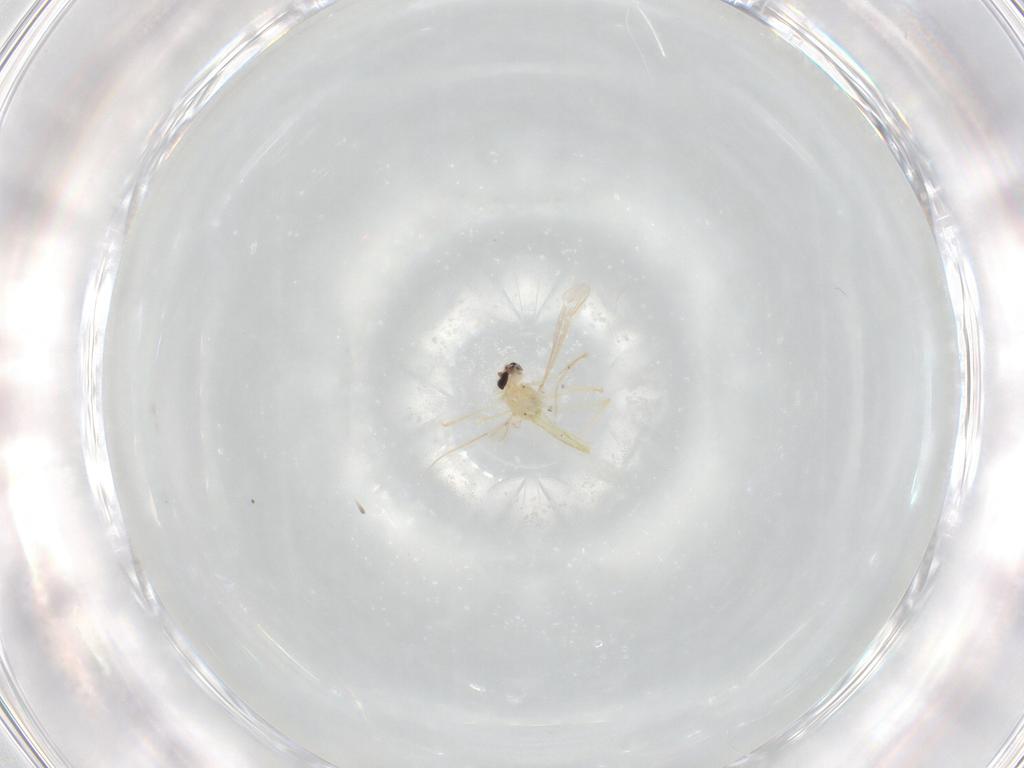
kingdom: Animalia
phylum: Arthropoda
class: Insecta
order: Diptera
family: Chironomidae
